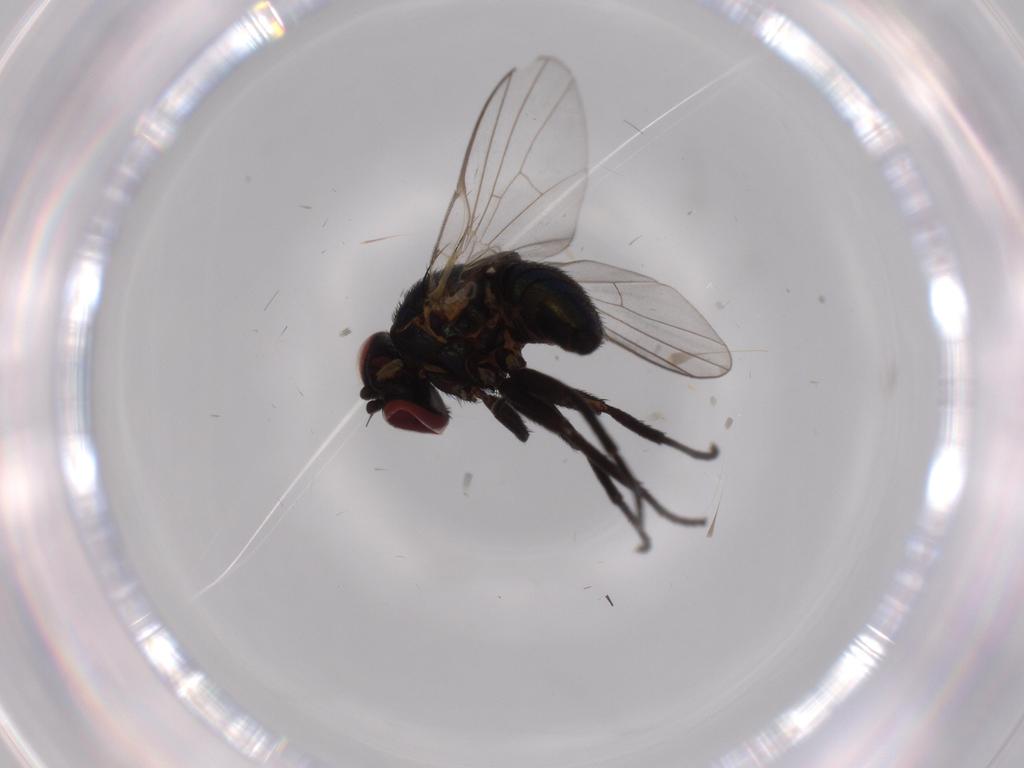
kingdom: Animalia
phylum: Arthropoda
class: Insecta
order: Diptera
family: Agromyzidae
